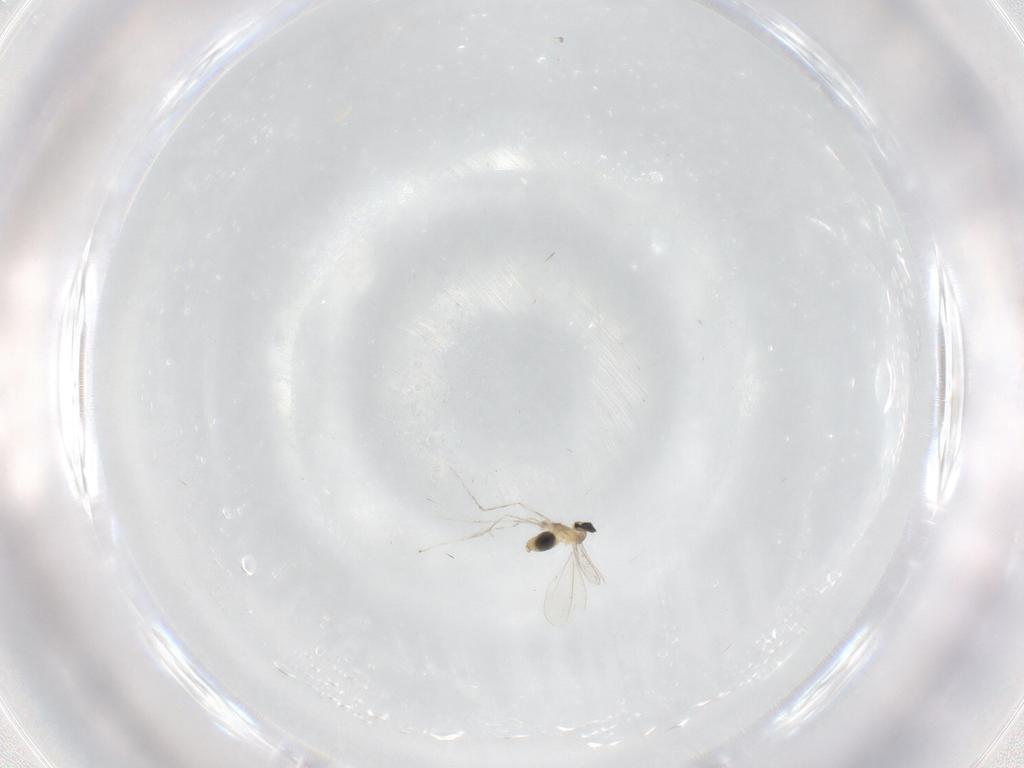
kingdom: Animalia
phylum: Arthropoda
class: Insecta
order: Diptera
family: Cecidomyiidae
